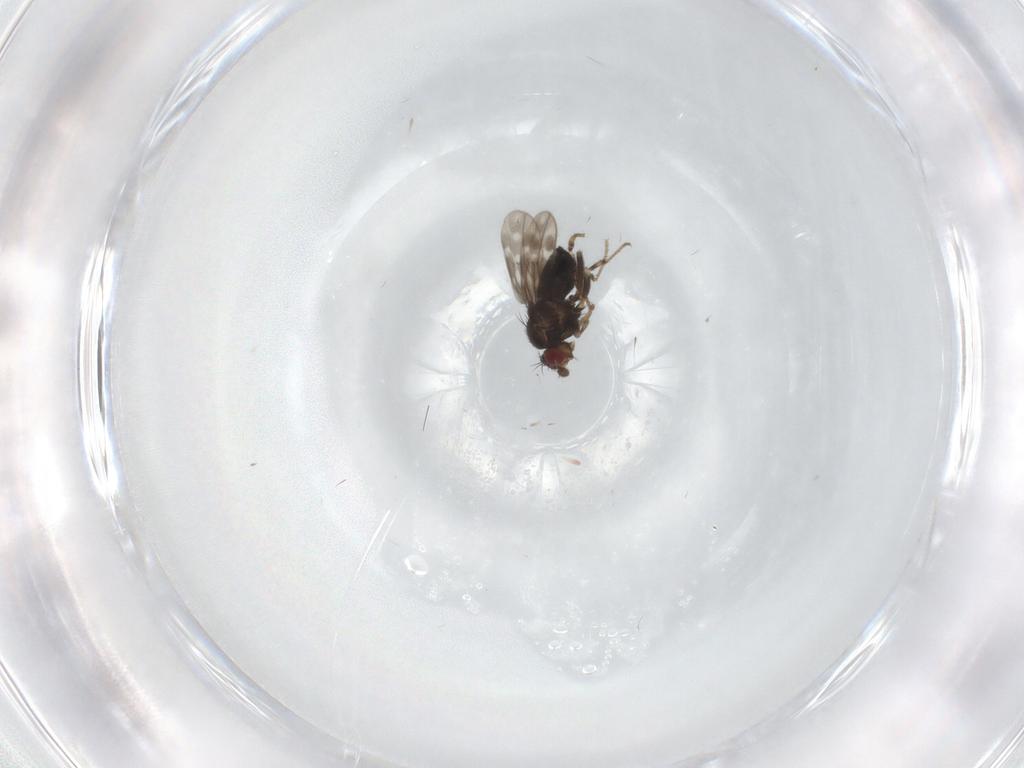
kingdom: Animalia
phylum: Arthropoda
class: Insecta
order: Diptera
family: Sphaeroceridae
